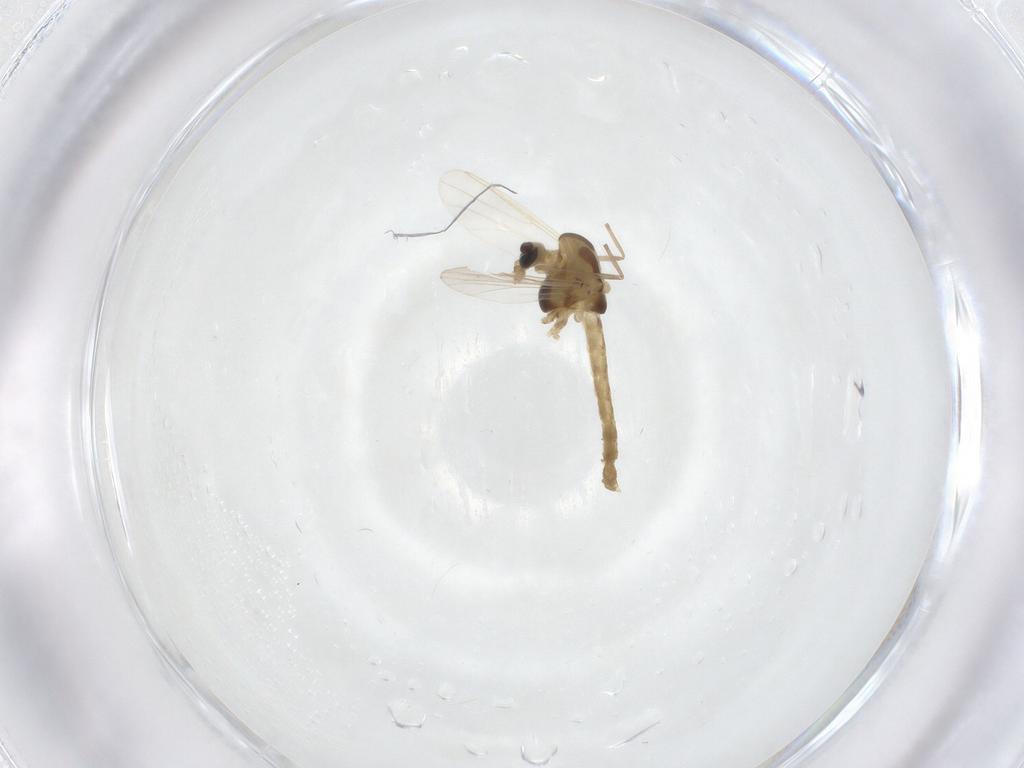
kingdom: Animalia
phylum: Arthropoda
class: Insecta
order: Diptera
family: Chironomidae
